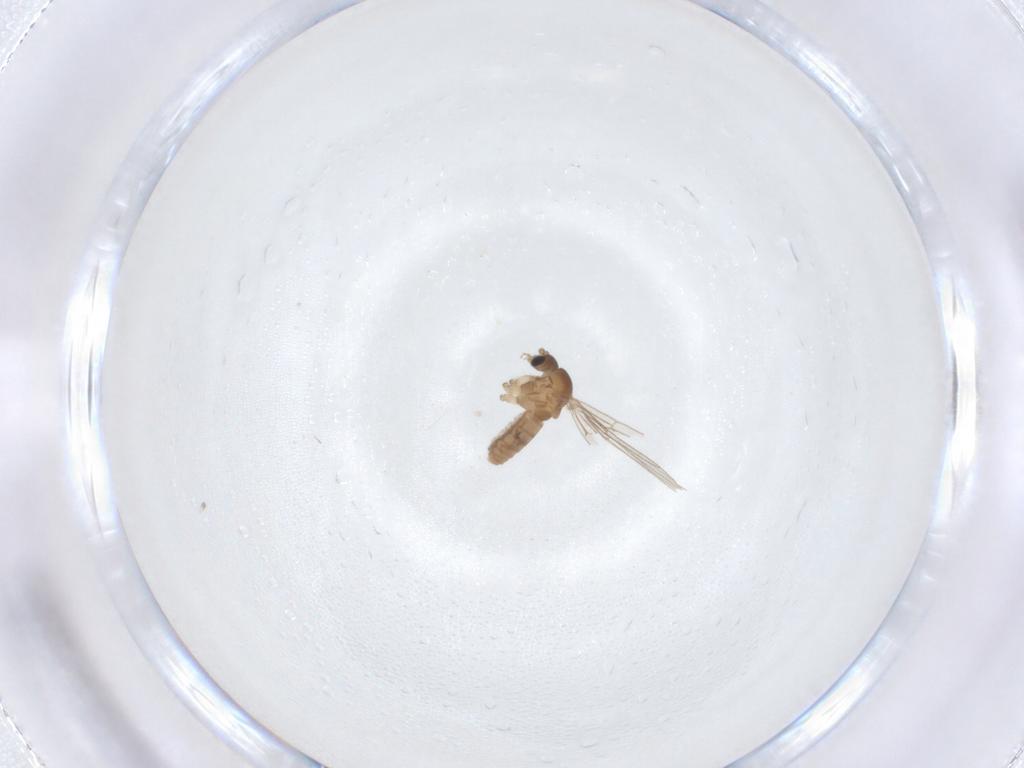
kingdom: Animalia
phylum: Arthropoda
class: Insecta
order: Diptera
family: Psychodidae
